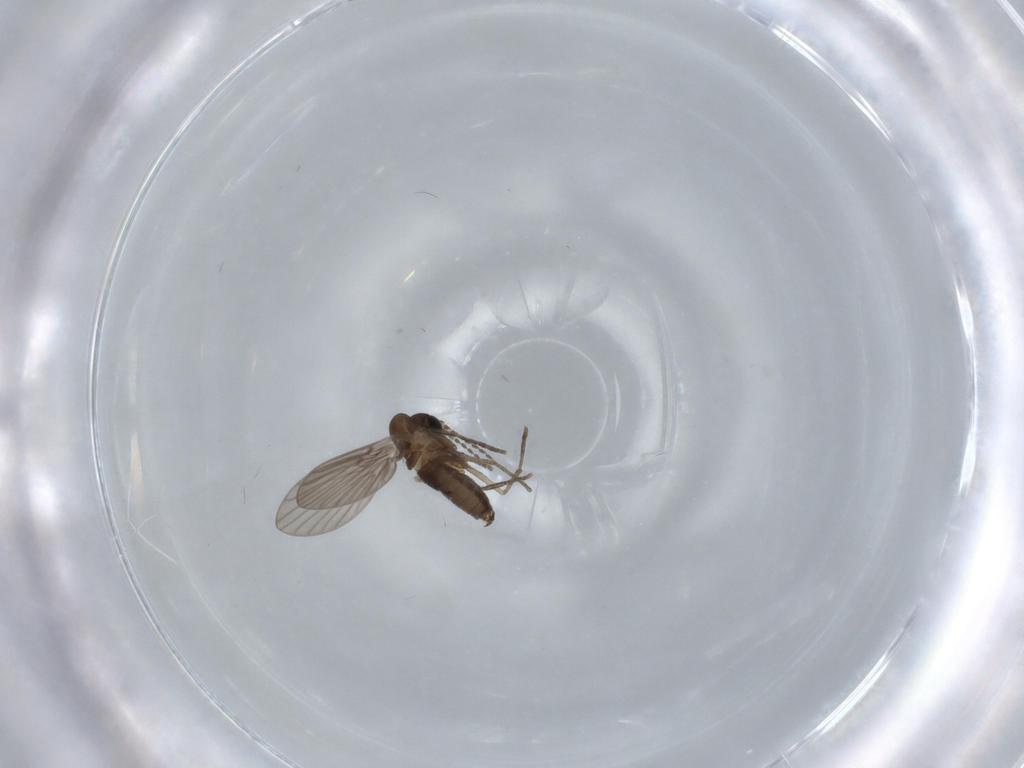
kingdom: Animalia
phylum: Arthropoda
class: Insecta
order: Diptera
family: Psychodidae
